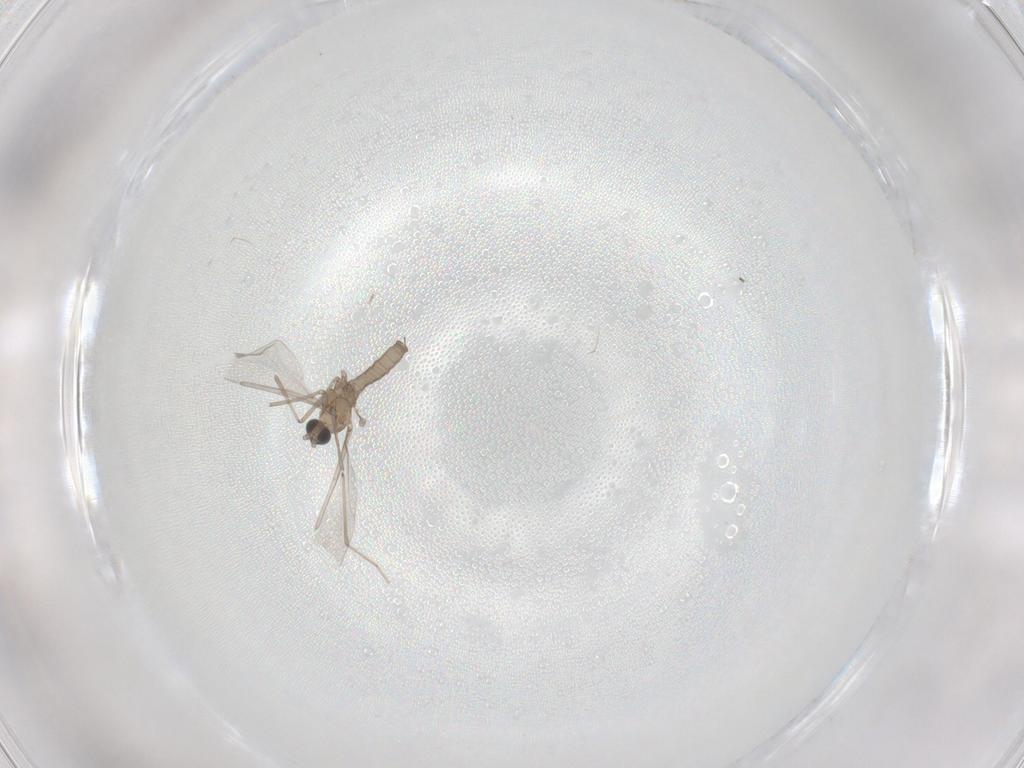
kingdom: Animalia
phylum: Arthropoda
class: Insecta
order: Diptera
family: Cecidomyiidae
